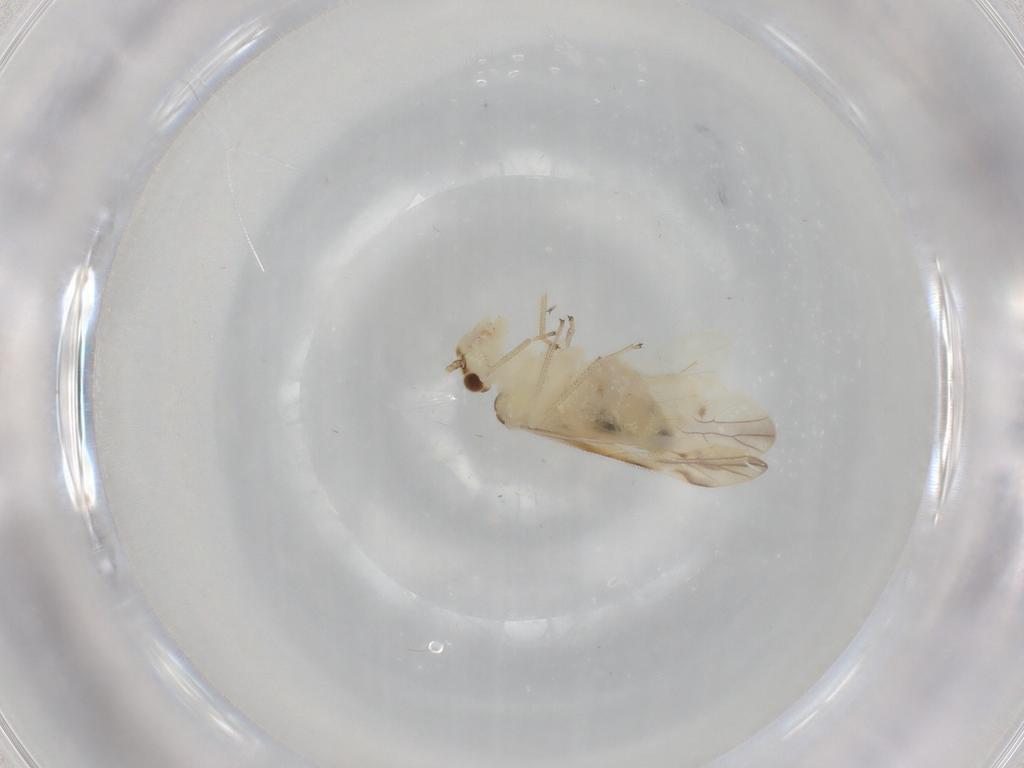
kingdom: Animalia
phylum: Arthropoda
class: Insecta
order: Psocodea
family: Caeciliusidae
